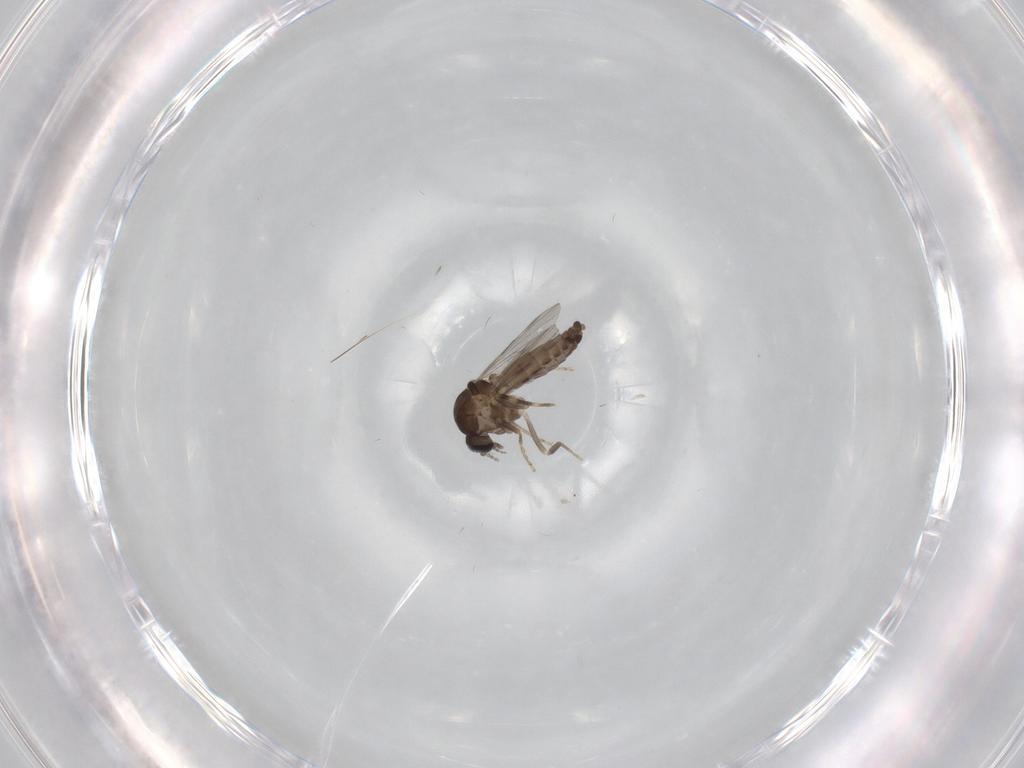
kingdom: Animalia
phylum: Arthropoda
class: Insecta
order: Diptera
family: Ceratopogonidae
